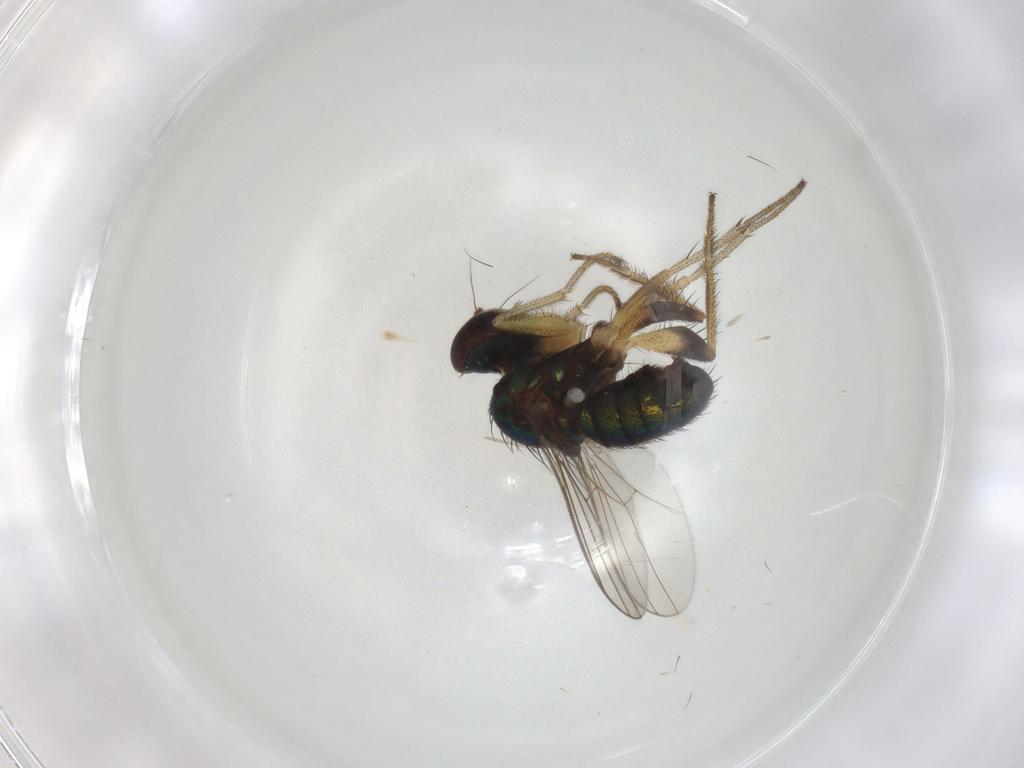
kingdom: Animalia
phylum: Arthropoda
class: Insecta
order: Diptera
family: Cecidomyiidae
